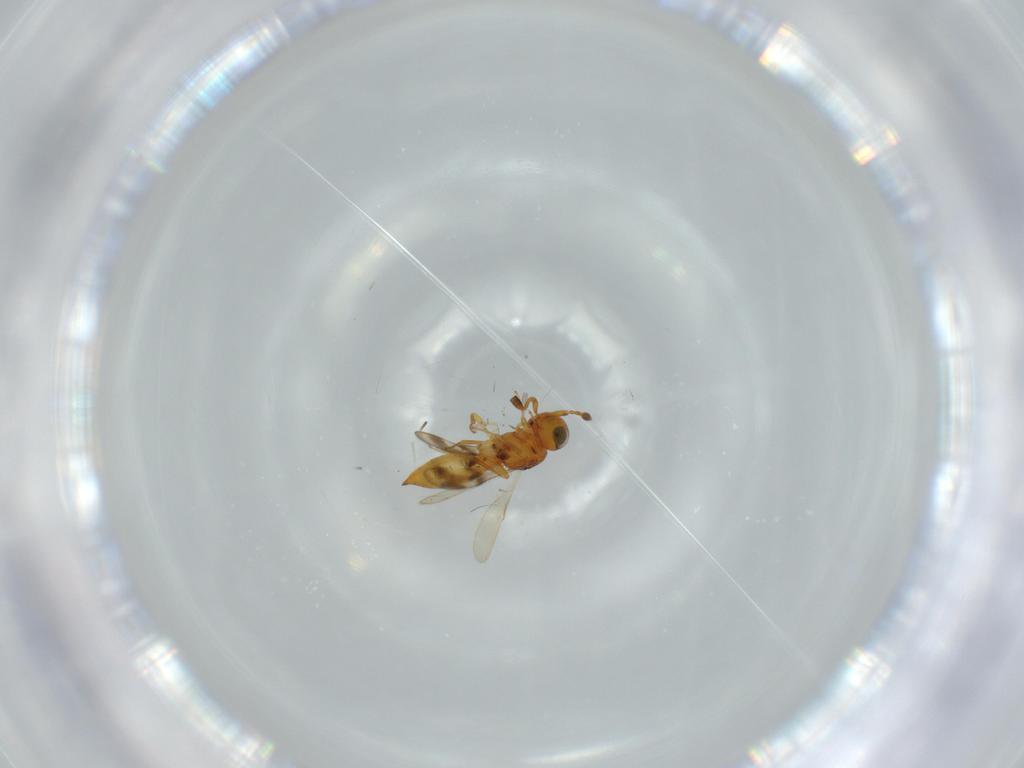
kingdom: Animalia
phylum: Arthropoda
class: Insecta
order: Hymenoptera
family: Scelionidae
